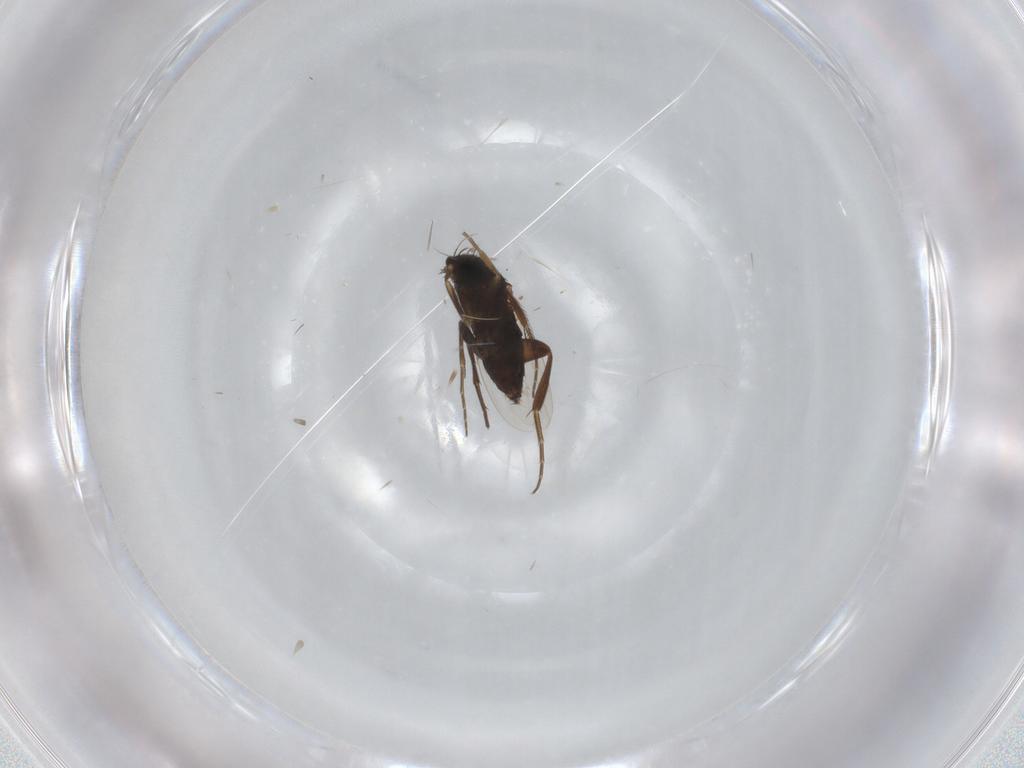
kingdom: Animalia
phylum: Arthropoda
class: Insecta
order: Diptera
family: Phoridae
